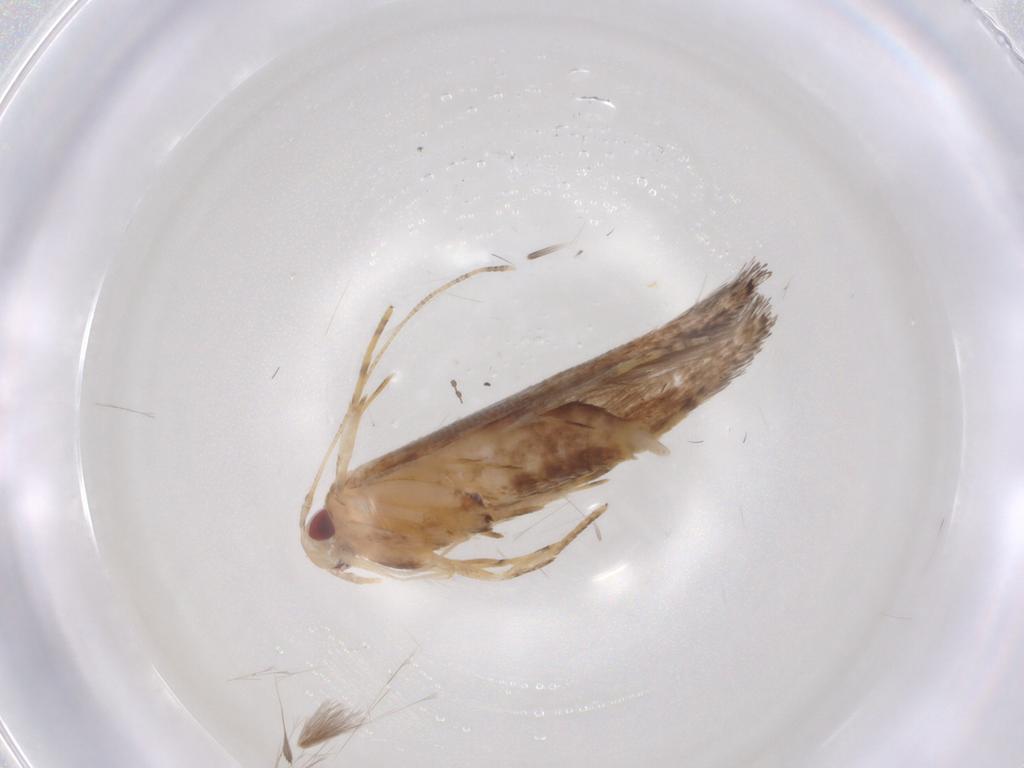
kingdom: Animalia
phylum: Arthropoda
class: Insecta
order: Lepidoptera
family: Cosmopterigidae
